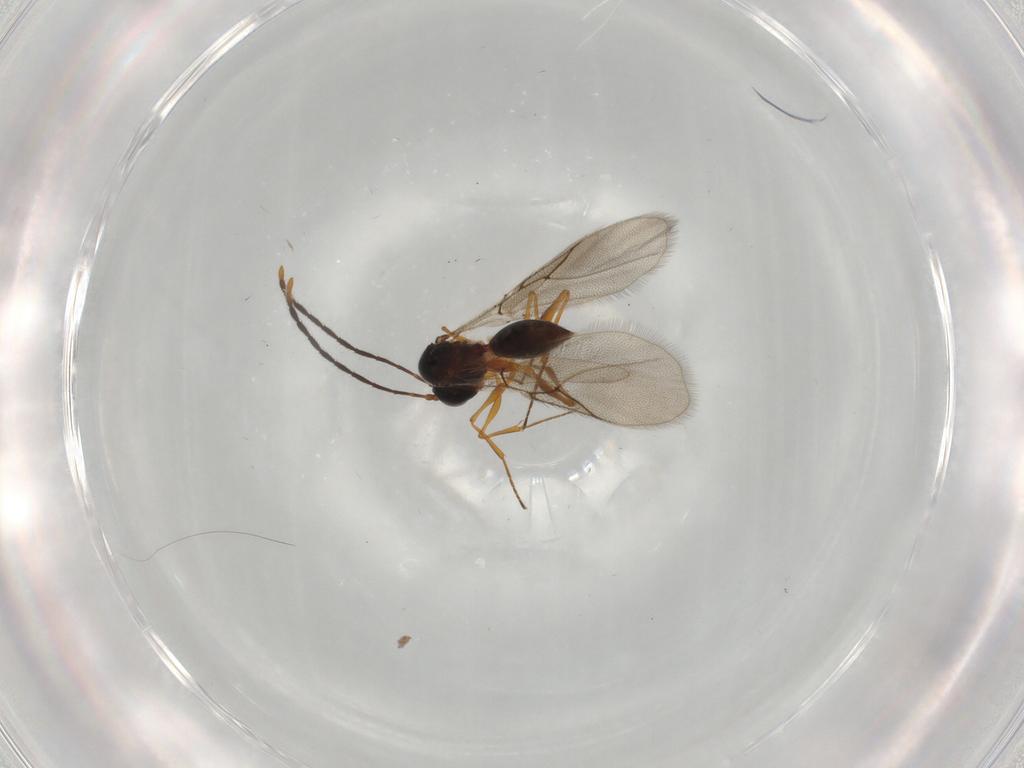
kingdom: Animalia
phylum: Arthropoda
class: Insecta
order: Hymenoptera
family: Figitidae
